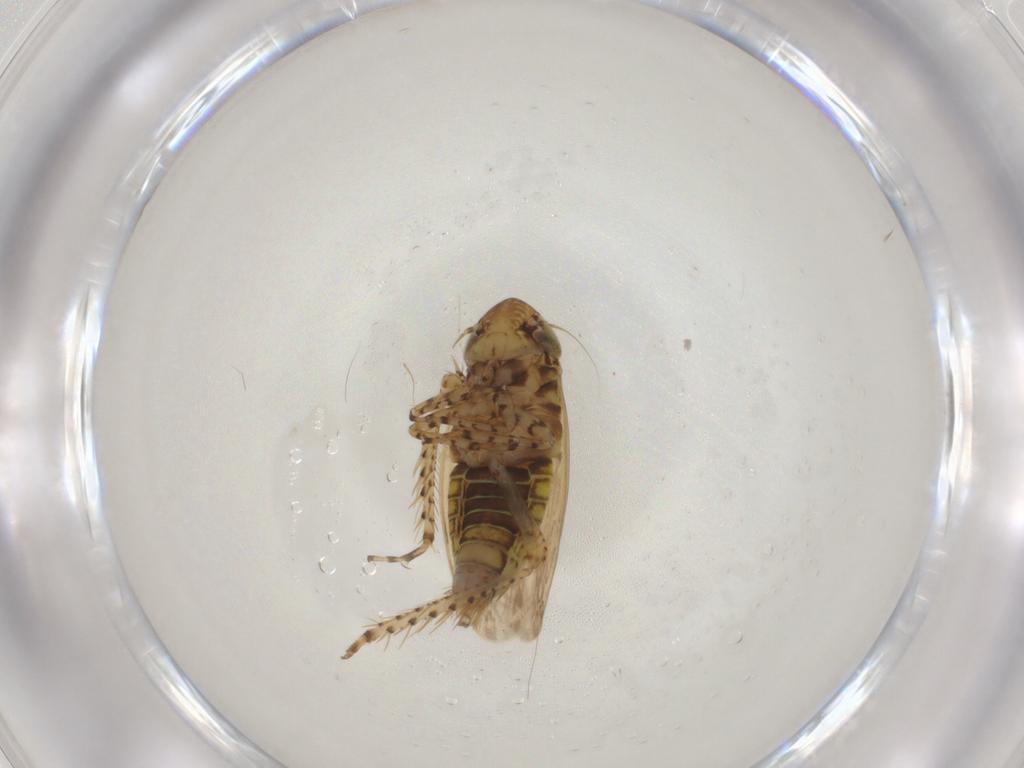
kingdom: Animalia
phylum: Arthropoda
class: Insecta
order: Hemiptera
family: Cicadellidae
